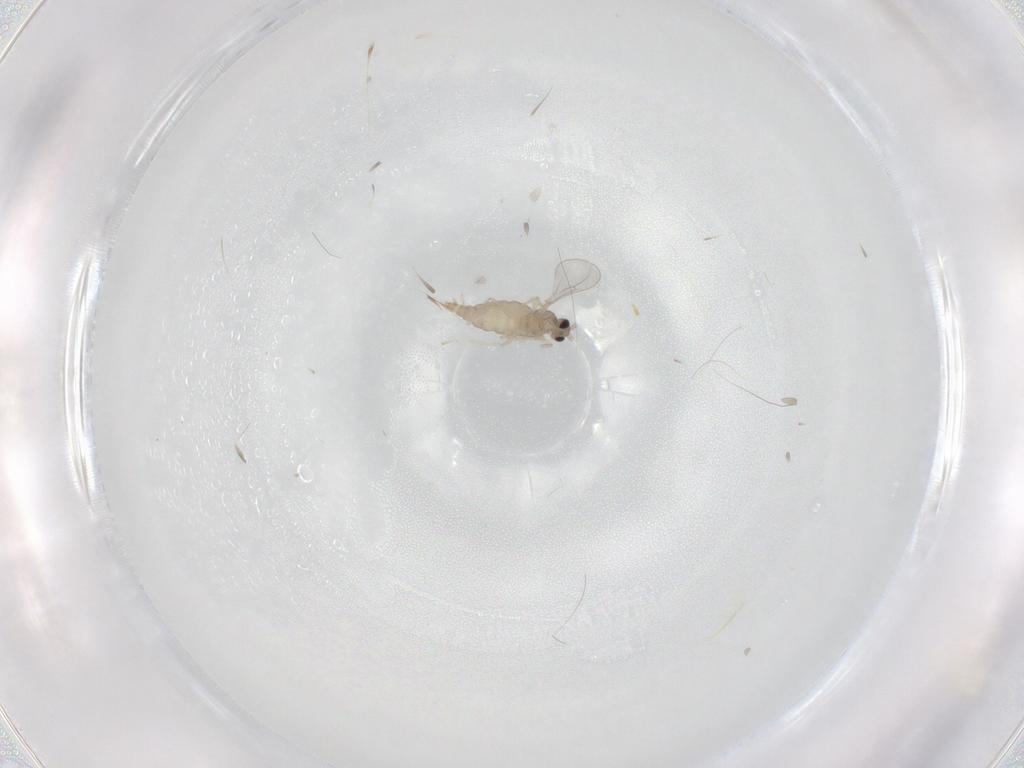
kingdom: Animalia
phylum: Arthropoda
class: Insecta
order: Diptera
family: Cecidomyiidae
